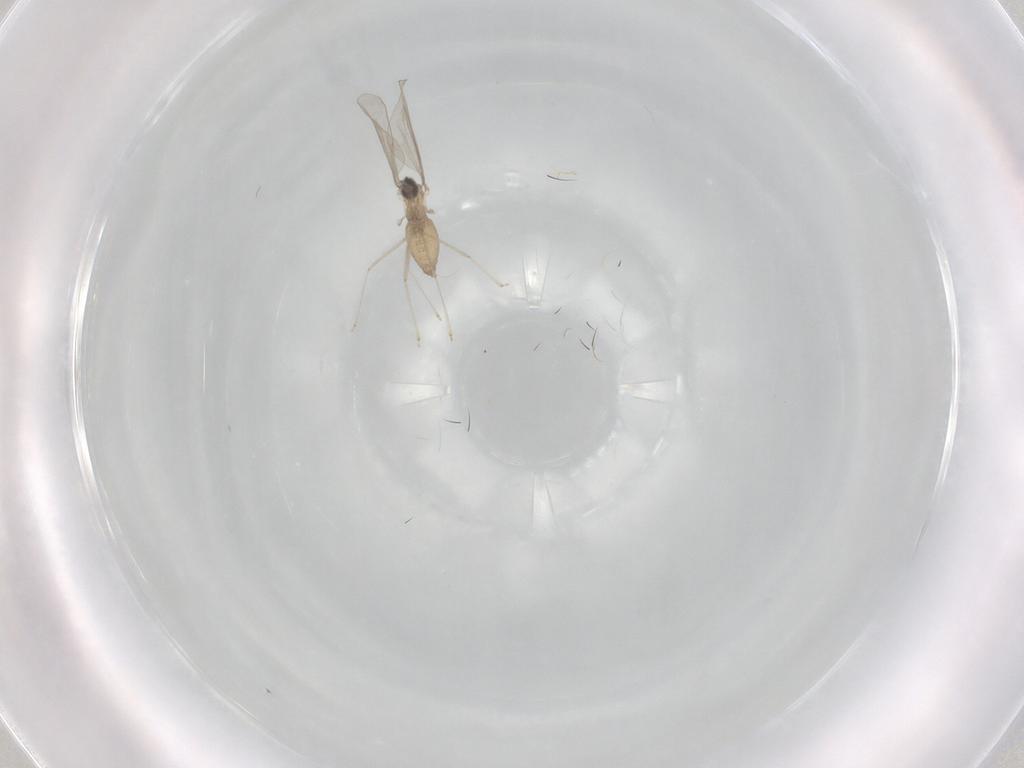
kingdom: Animalia
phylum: Arthropoda
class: Insecta
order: Diptera
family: Cecidomyiidae
